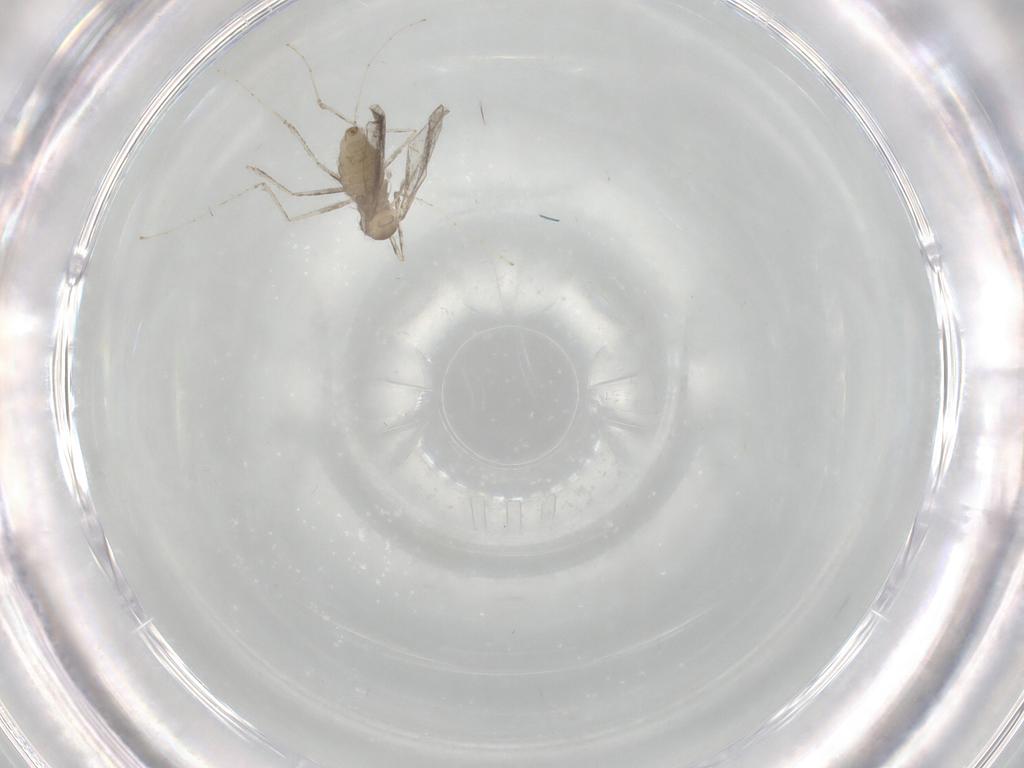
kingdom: Animalia
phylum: Arthropoda
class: Insecta
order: Diptera
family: Cecidomyiidae
